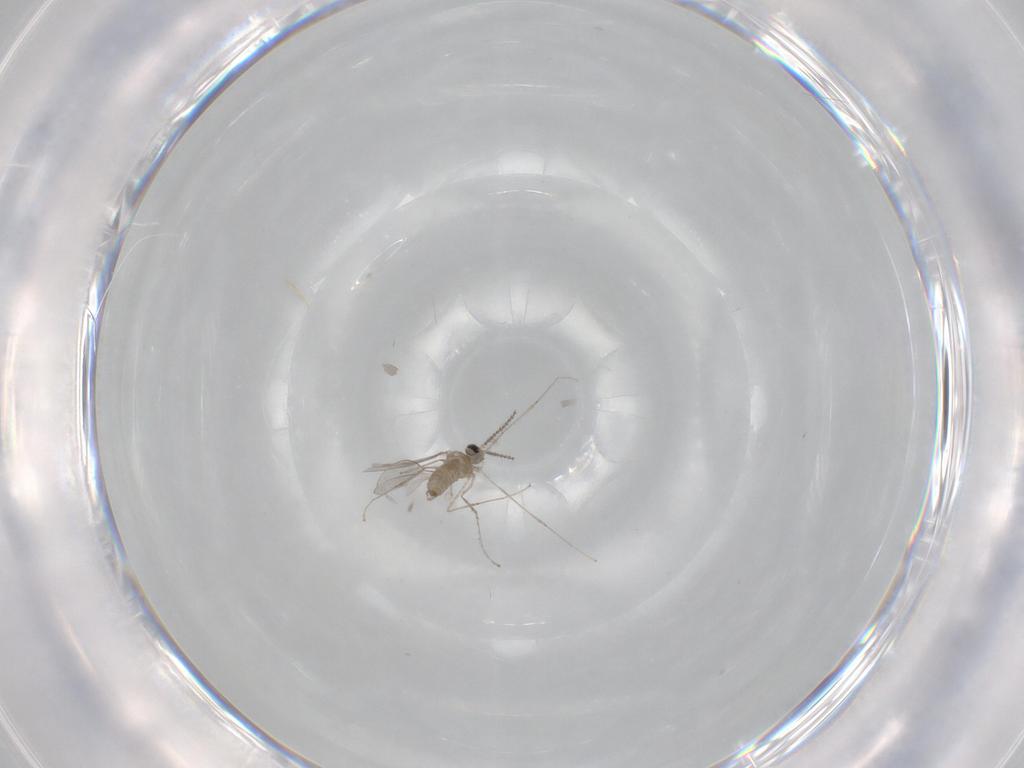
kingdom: Animalia
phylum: Arthropoda
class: Insecta
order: Diptera
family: Cecidomyiidae
